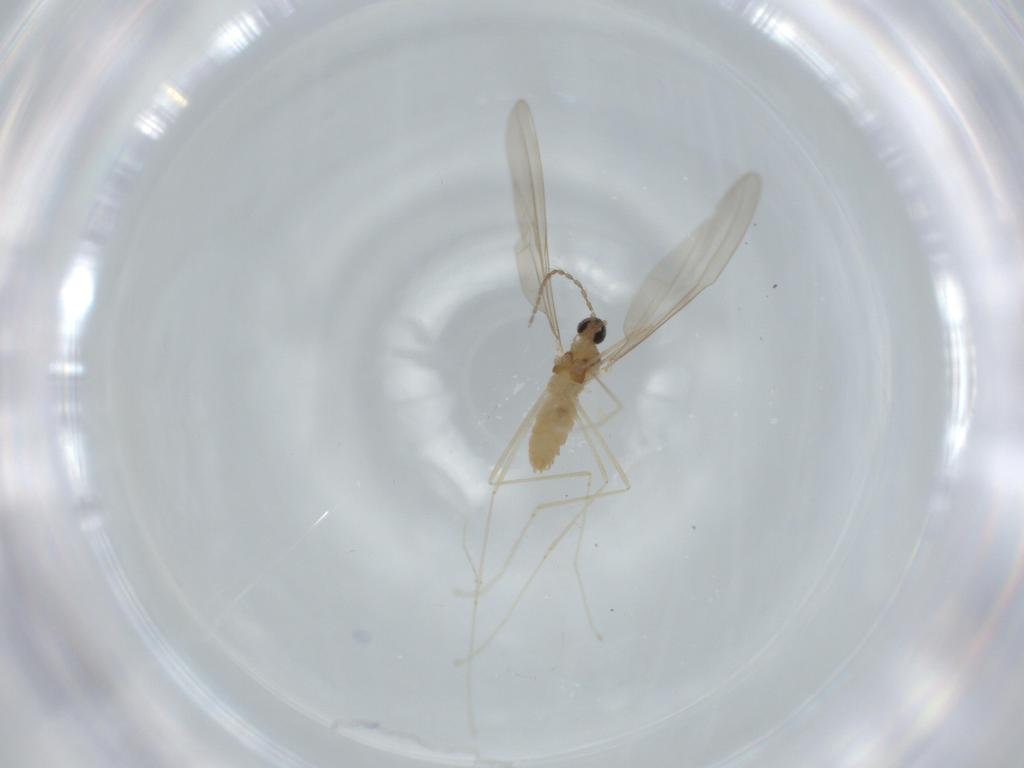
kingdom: Animalia
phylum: Arthropoda
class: Insecta
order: Diptera
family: Cecidomyiidae
